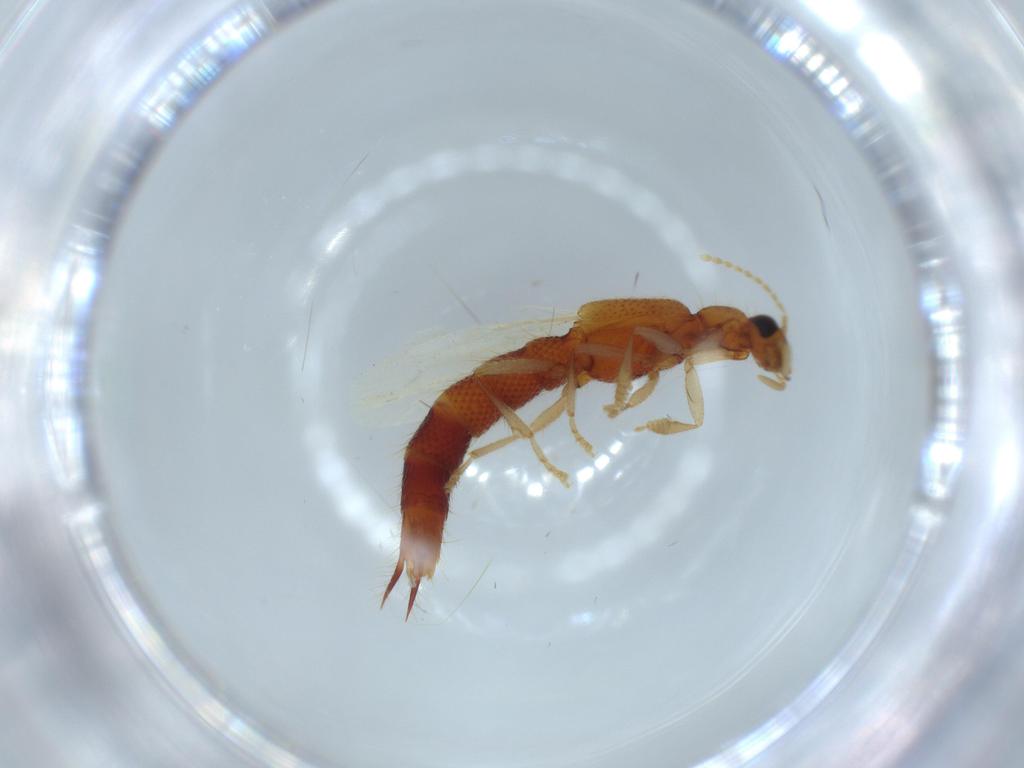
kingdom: Animalia
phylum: Arthropoda
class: Insecta
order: Coleoptera
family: Staphylinidae
